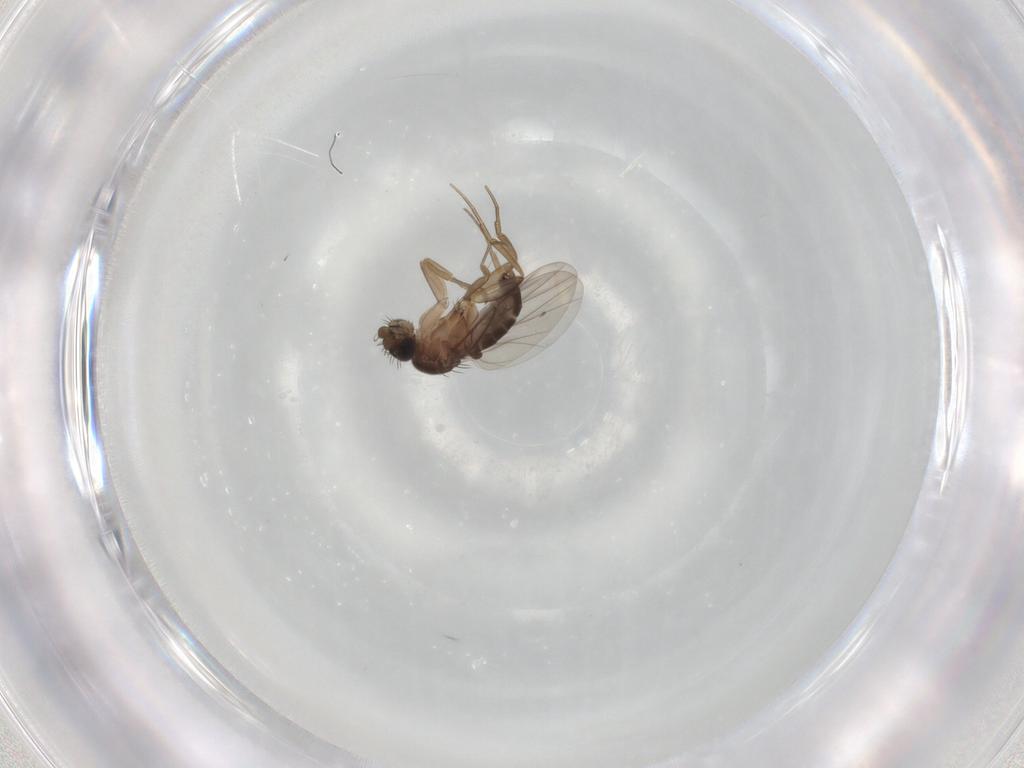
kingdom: Animalia
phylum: Arthropoda
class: Insecta
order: Diptera
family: Phoridae
